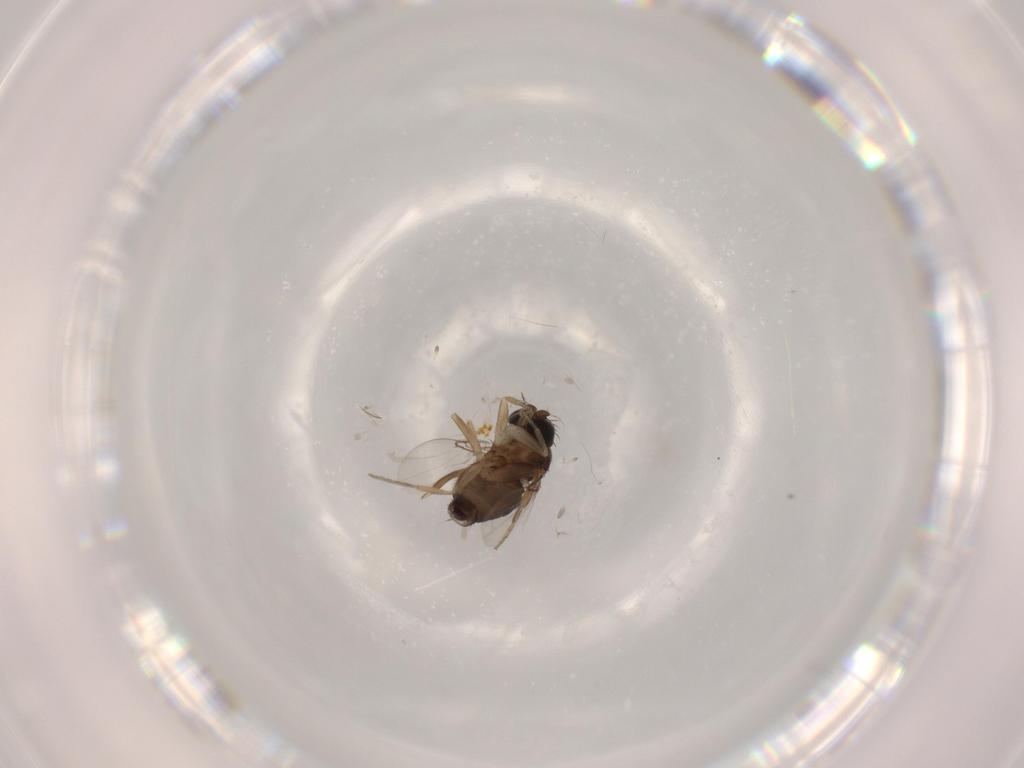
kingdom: Animalia
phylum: Arthropoda
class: Insecta
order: Diptera
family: Phoridae
